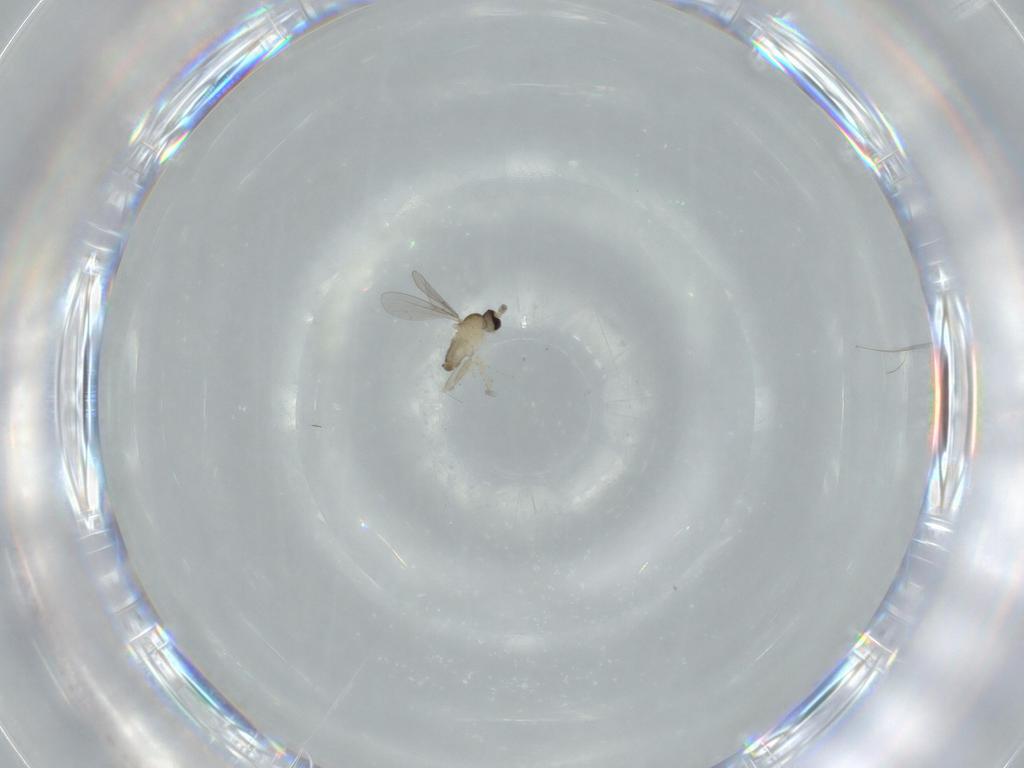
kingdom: Animalia
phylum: Arthropoda
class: Insecta
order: Diptera
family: Cecidomyiidae
